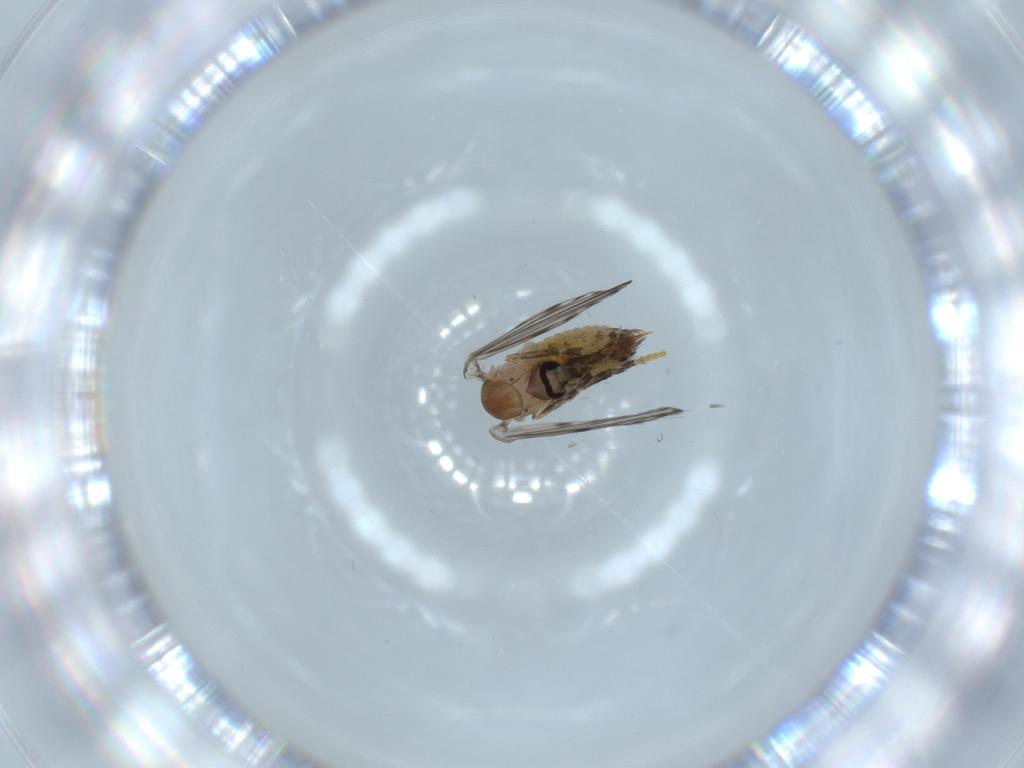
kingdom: Animalia
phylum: Arthropoda
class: Insecta
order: Diptera
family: Psychodidae
